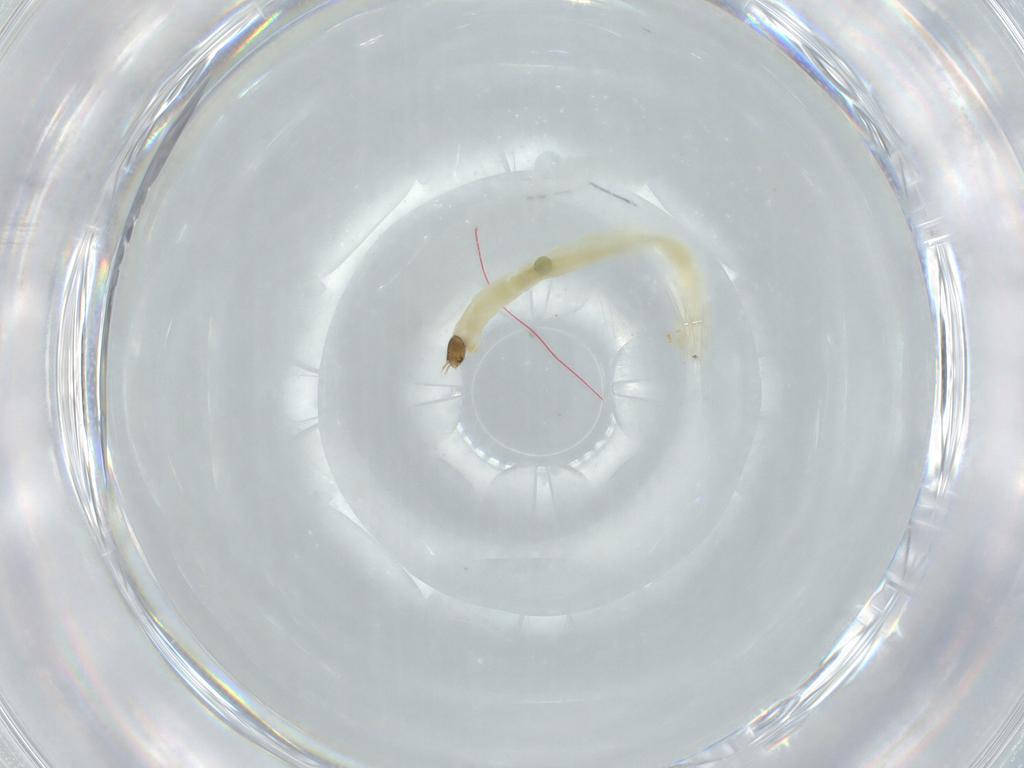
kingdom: Animalia
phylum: Arthropoda
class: Insecta
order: Diptera
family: Chironomidae
